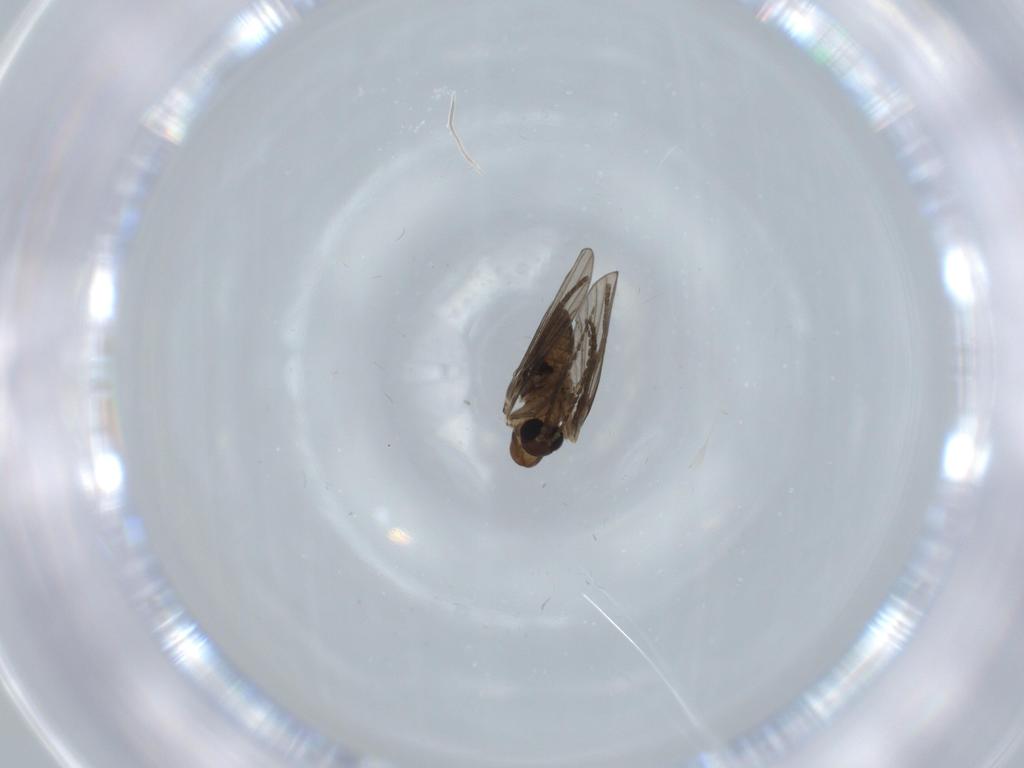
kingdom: Animalia
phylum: Arthropoda
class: Insecta
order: Diptera
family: Psychodidae
